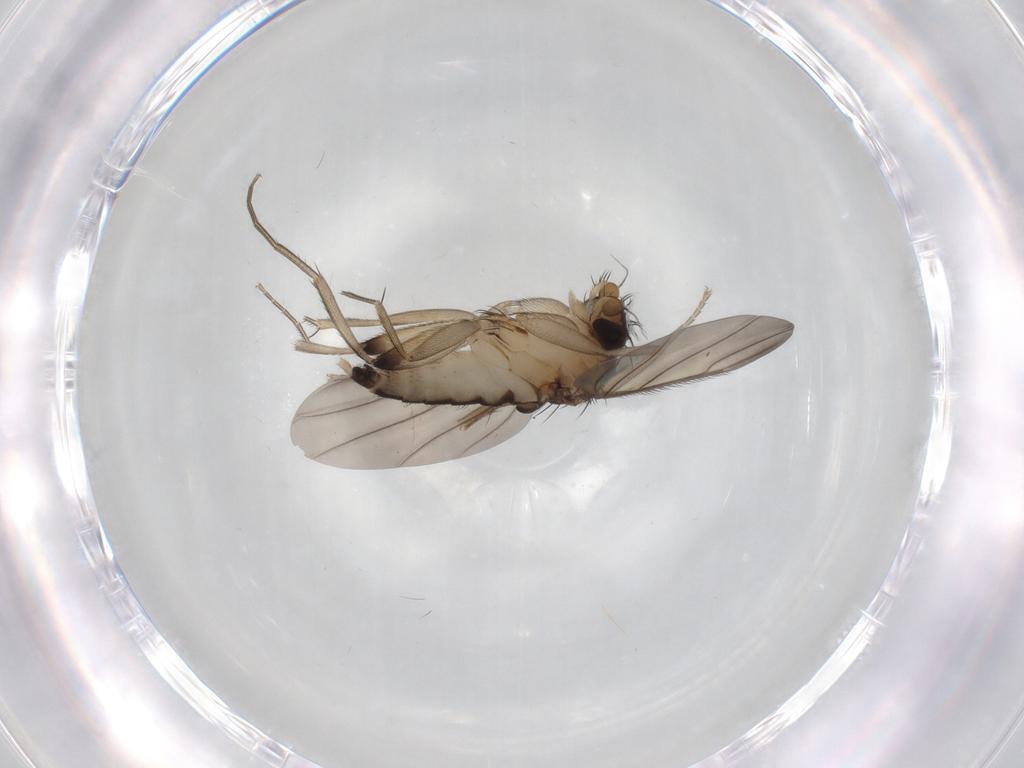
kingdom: Animalia
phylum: Arthropoda
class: Insecta
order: Diptera
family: Phoridae
